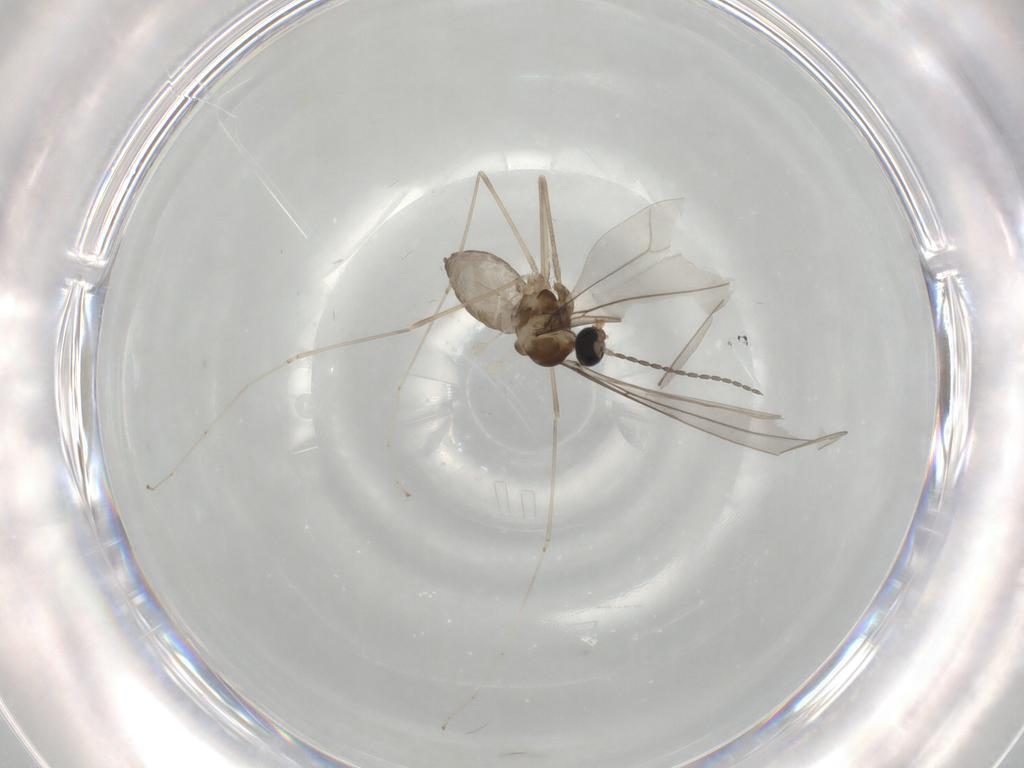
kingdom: Animalia
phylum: Arthropoda
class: Insecta
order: Diptera
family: Cecidomyiidae
